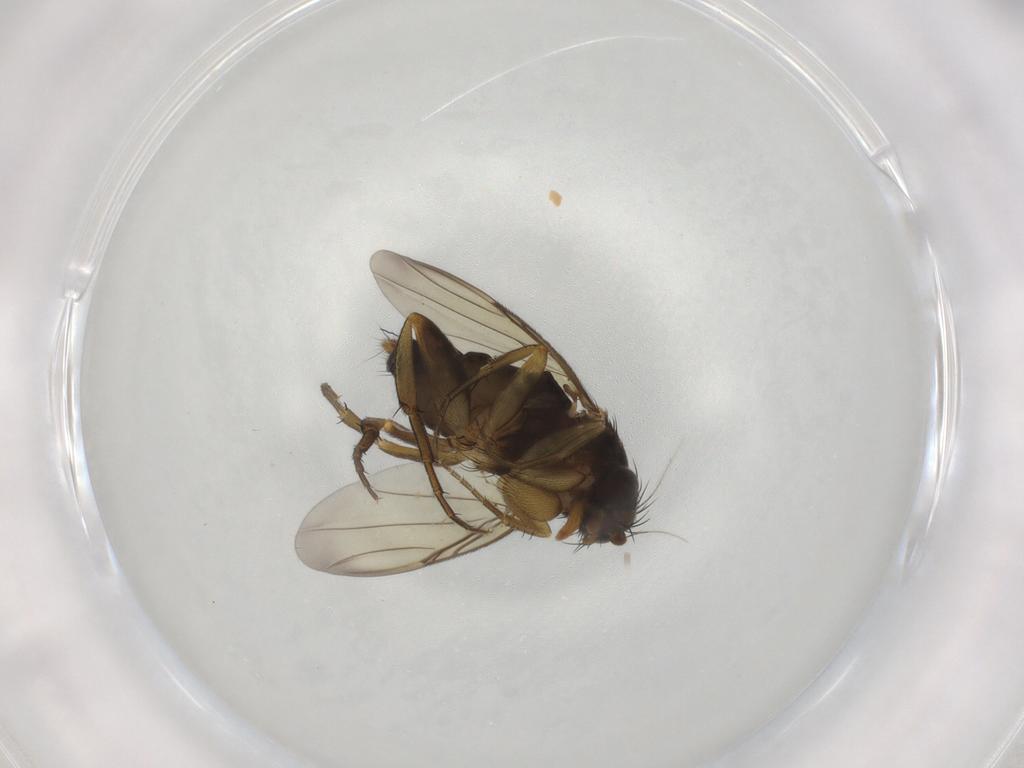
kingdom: Animalia
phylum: Arthropoda
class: Insecta
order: Diptera
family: Phoridae
